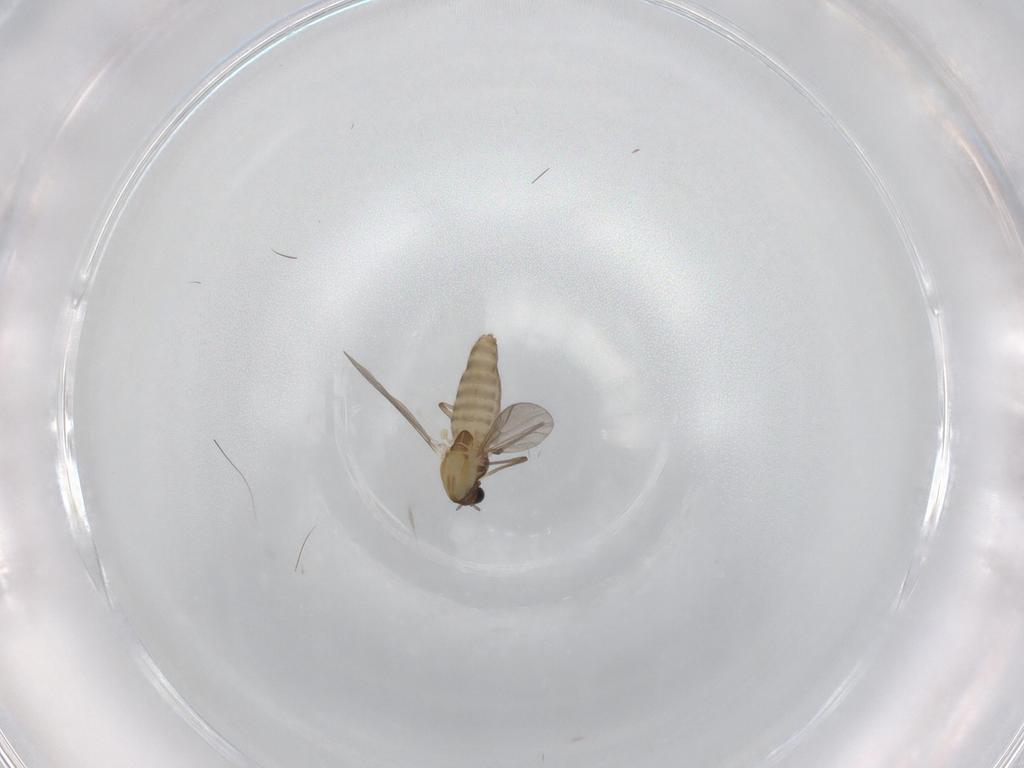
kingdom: Animalia
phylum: Arthropoda
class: Insecta
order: Diptera
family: Chironomidae
